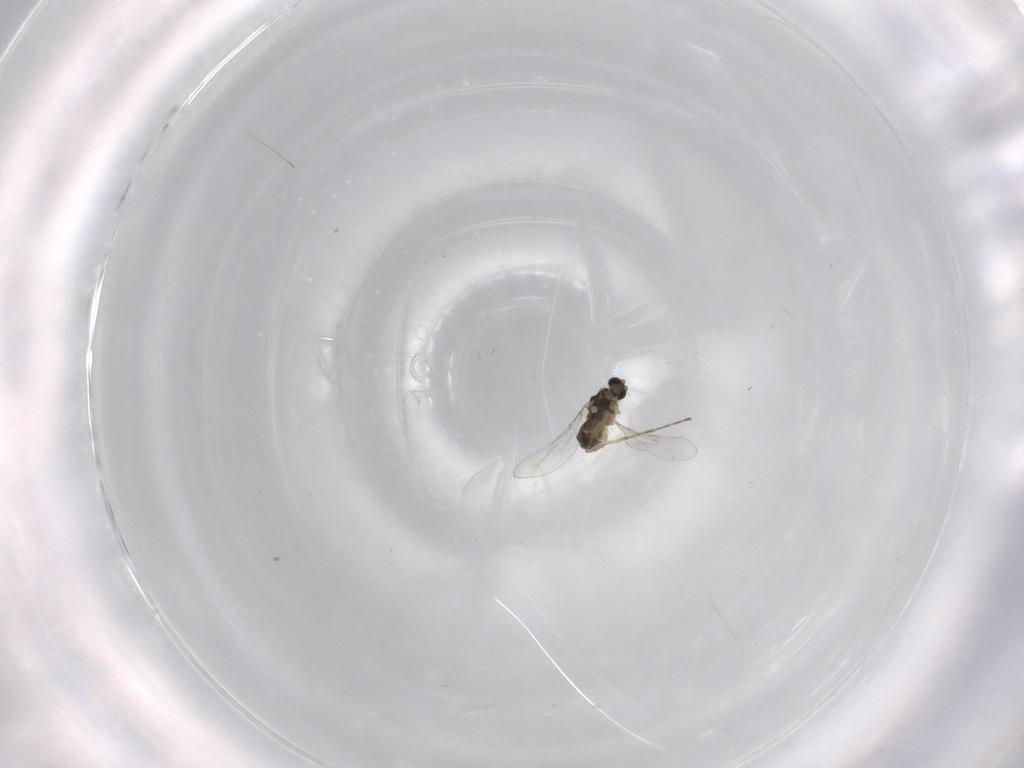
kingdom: Animalia
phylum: Arthropoda
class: Insecta
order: Diptera
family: Cecidomyiidae
